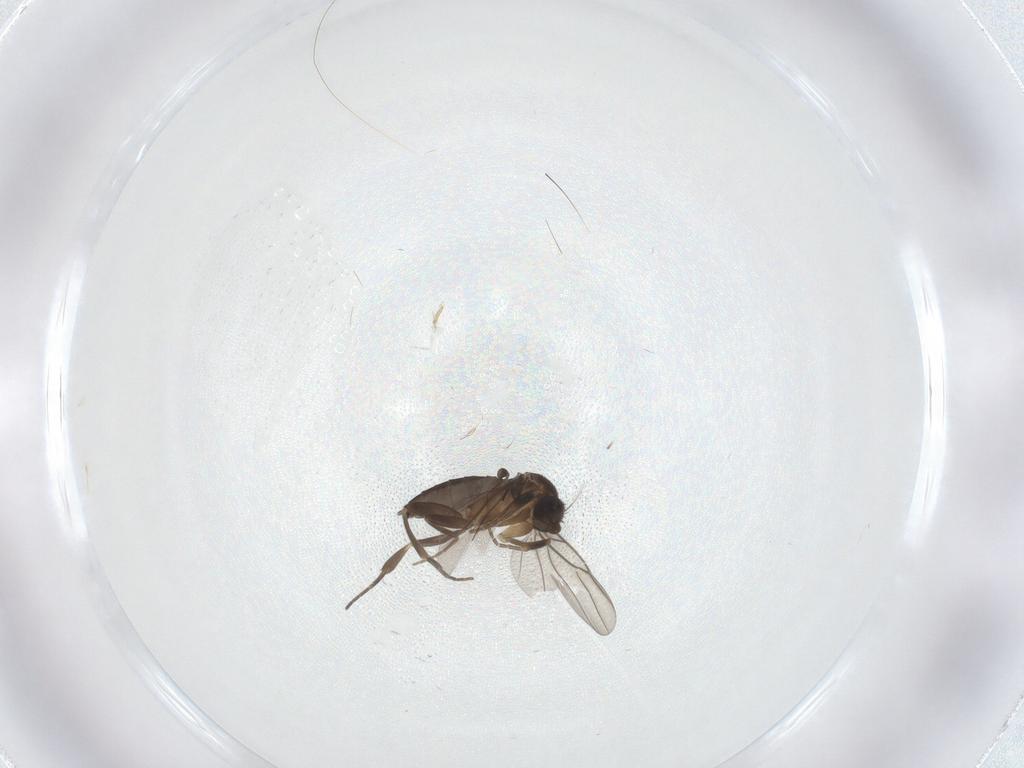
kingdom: Animalia
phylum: Arthropoda
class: Insecta
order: Diptera
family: Phoridae
